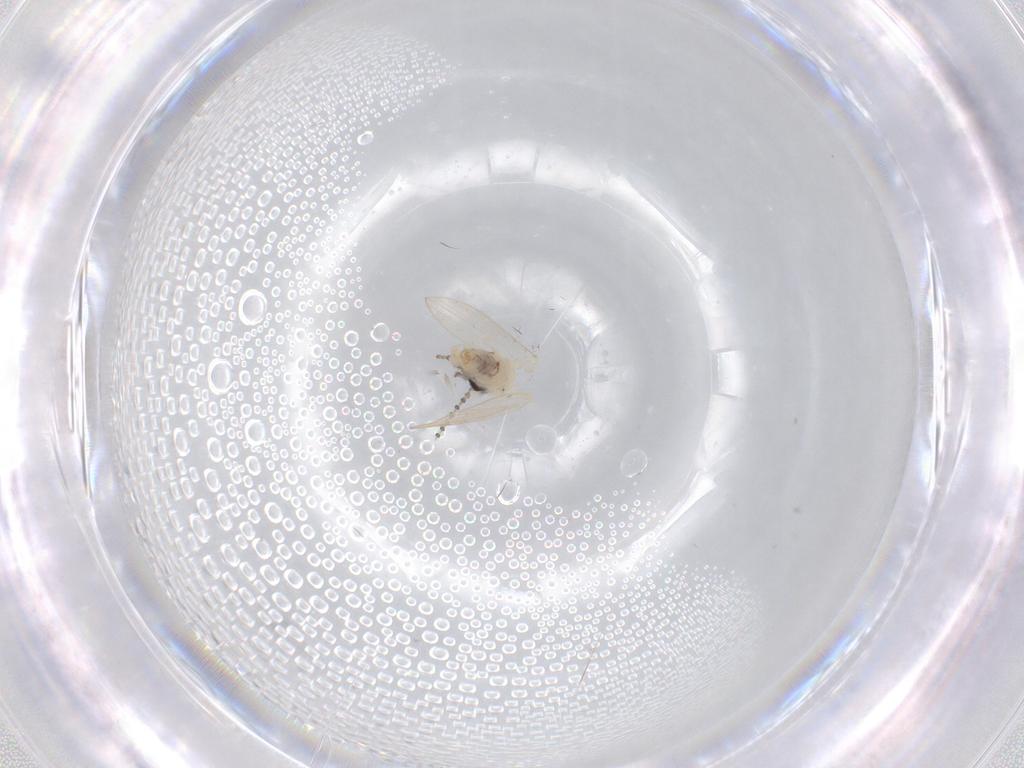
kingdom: Animalia
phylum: Arthropoda
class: Insecta
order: Diptera
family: Psychodidae
